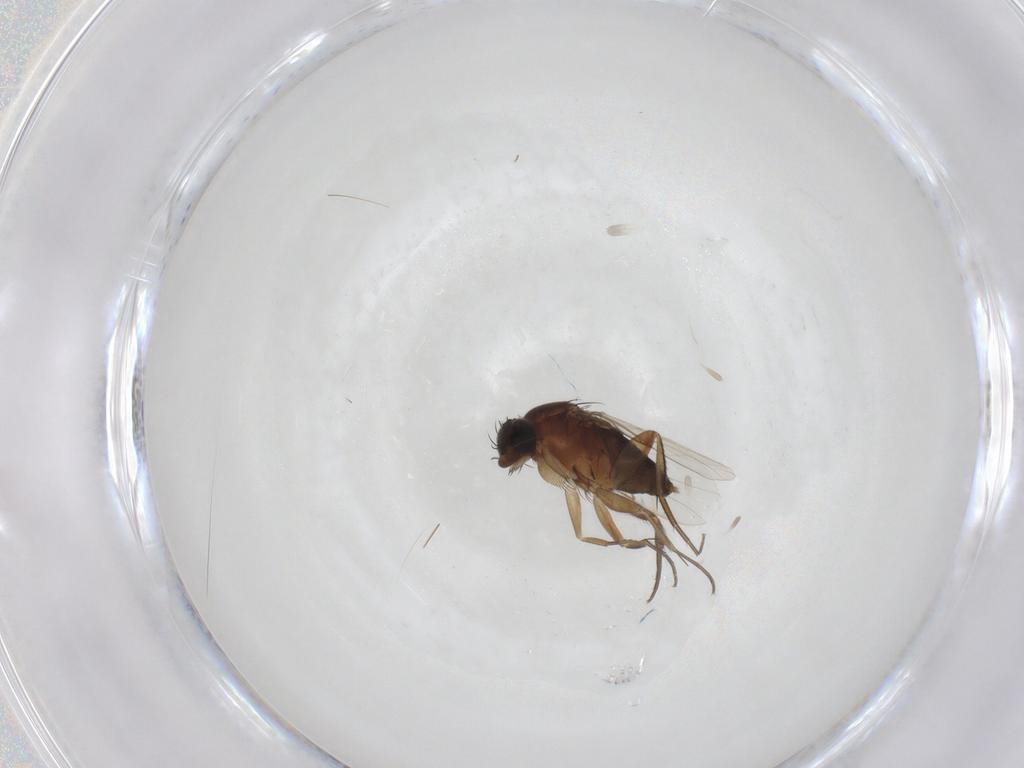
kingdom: Animalia
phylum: Arthropoda
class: Insecta
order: Diptera
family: Phoridae
